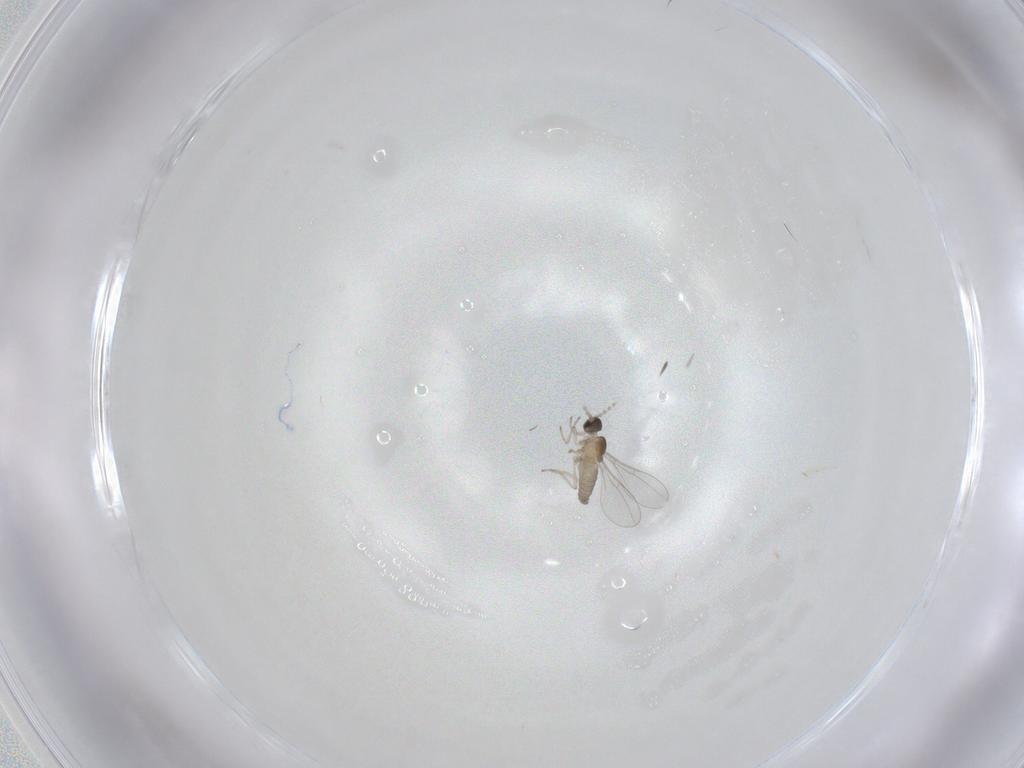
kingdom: Animalia
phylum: Arthropoda
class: Insecta
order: Diptera
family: Cecidomyiidae
